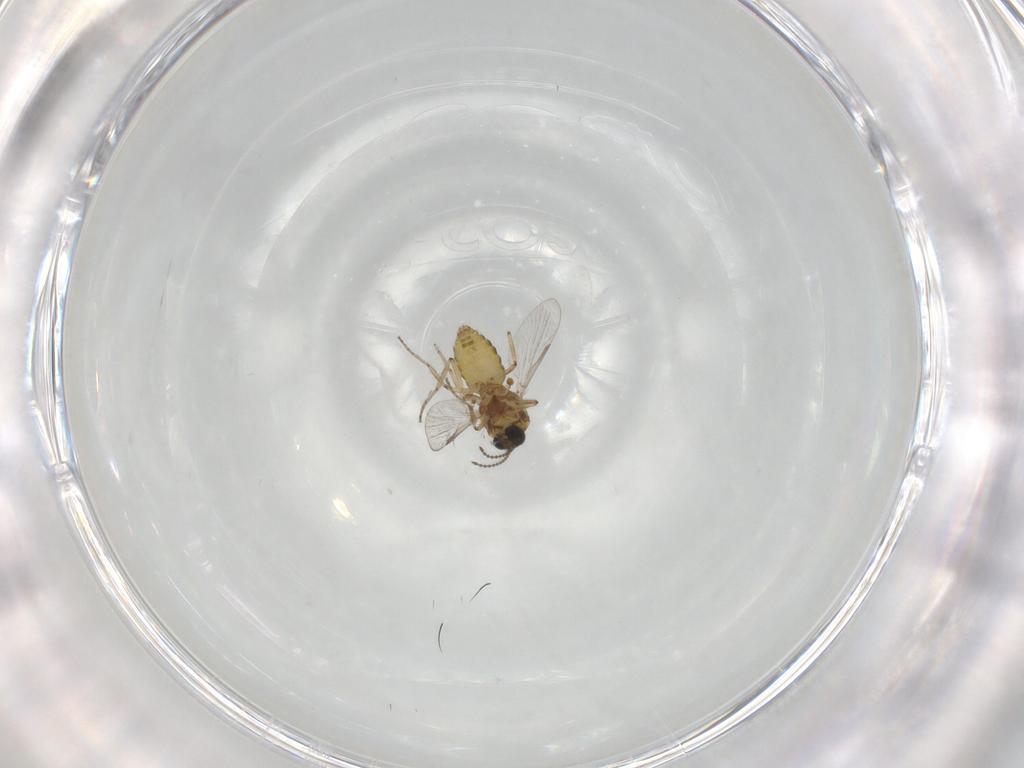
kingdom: Animalia
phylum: Arthropoda
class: Insecta
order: Diptera
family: Ceratopogonidae
